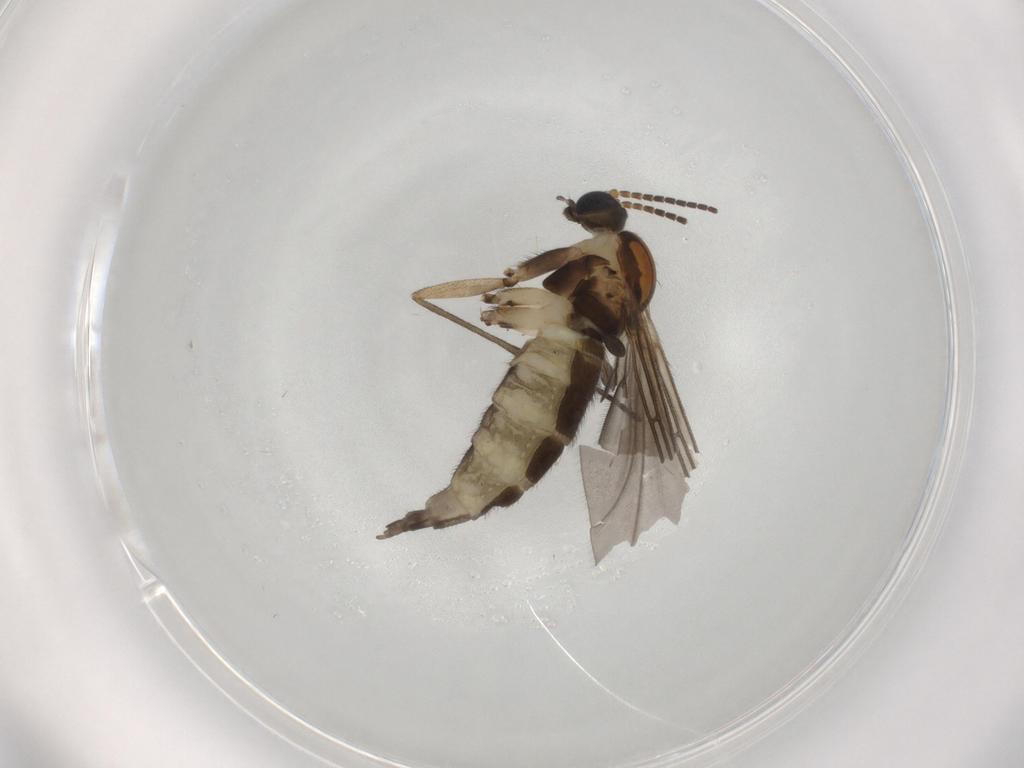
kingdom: Animalia
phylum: Arthropoda
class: Insecta
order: Diptera
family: Sciaridae
